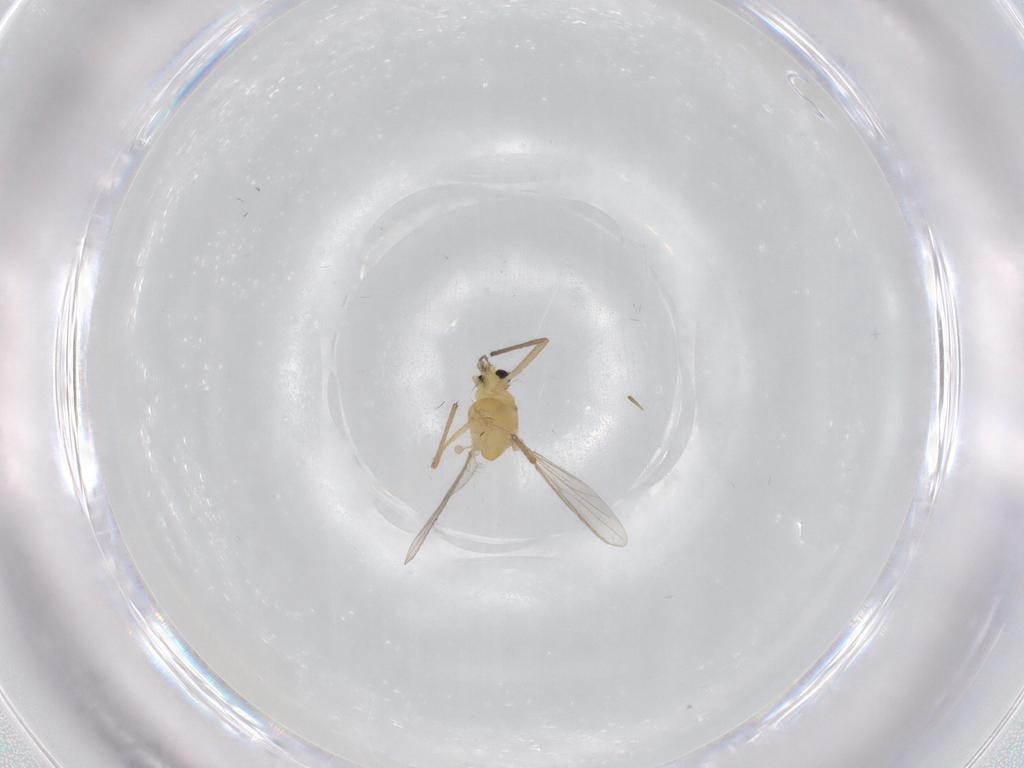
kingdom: Animalia
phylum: Arthropoda
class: Insecta
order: Diptera
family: Chironomidae
